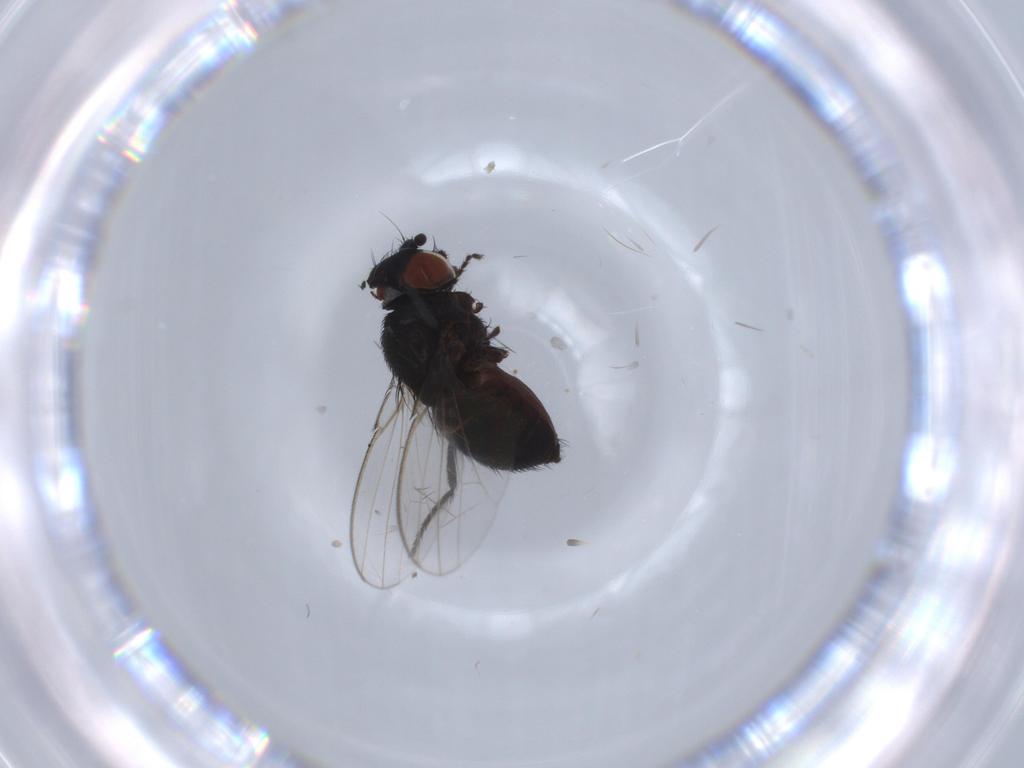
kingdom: Animalia
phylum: Arthropoda
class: Insecta
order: Diptera
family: Milichiidae
